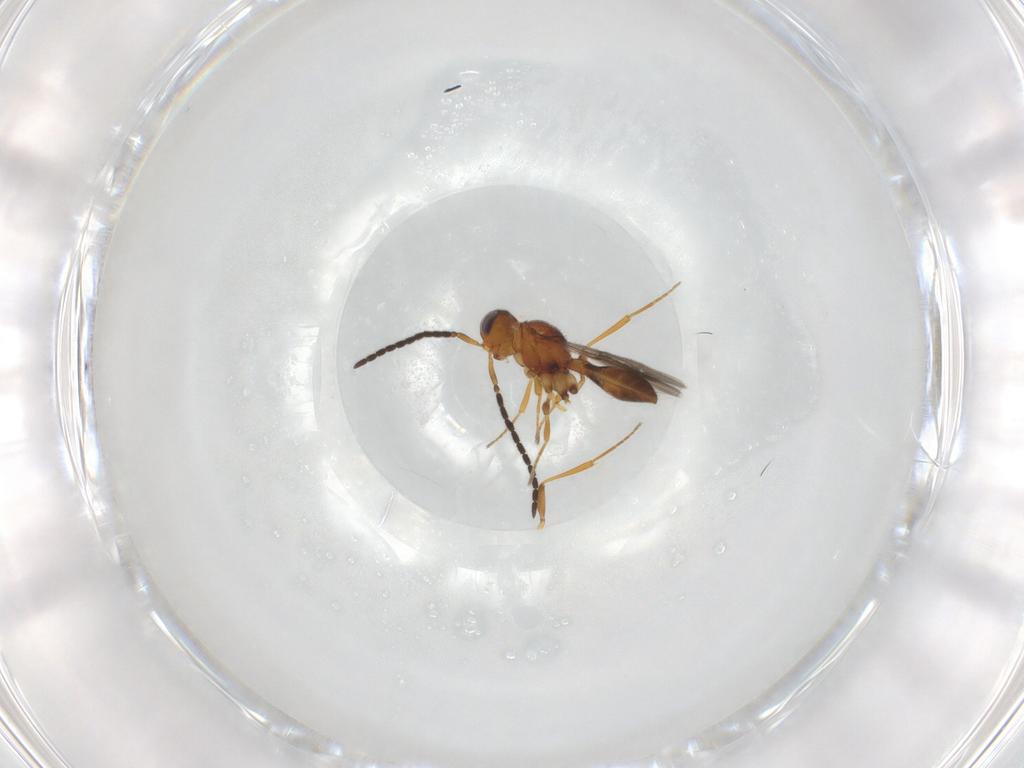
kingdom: Animalia
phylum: Arthropoda
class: Insecta
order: Hymenoptera
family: Scelionidae
